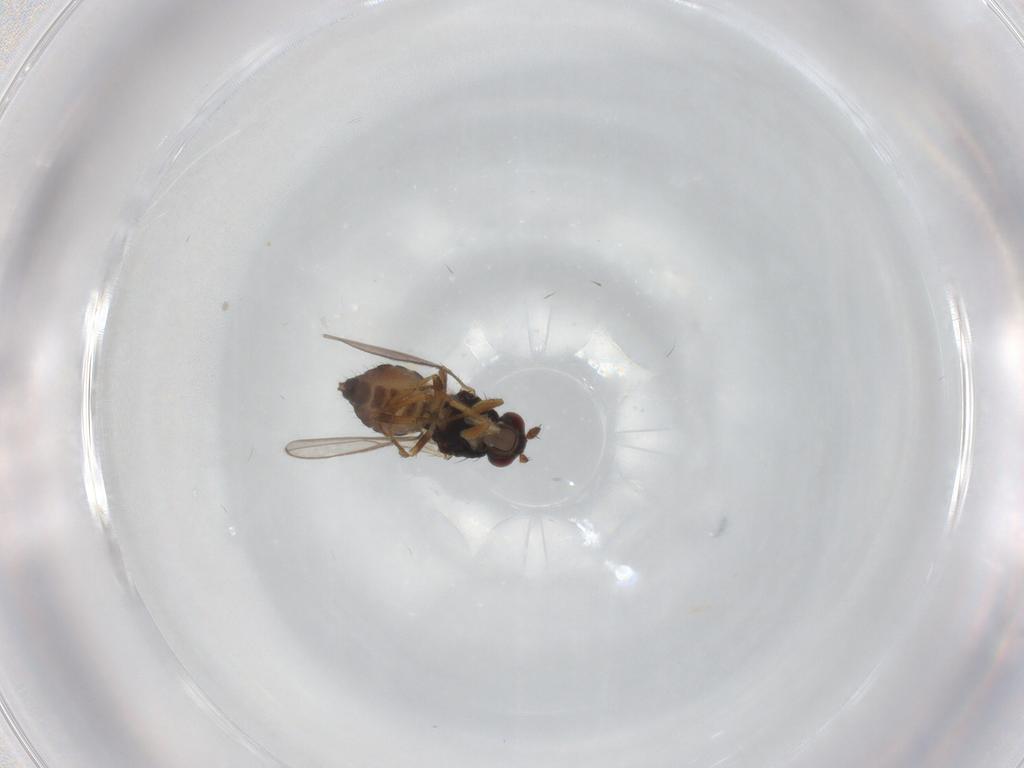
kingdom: Animalia
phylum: Arthropoda
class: Insecta
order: Diptera
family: Sphaeroceridae
